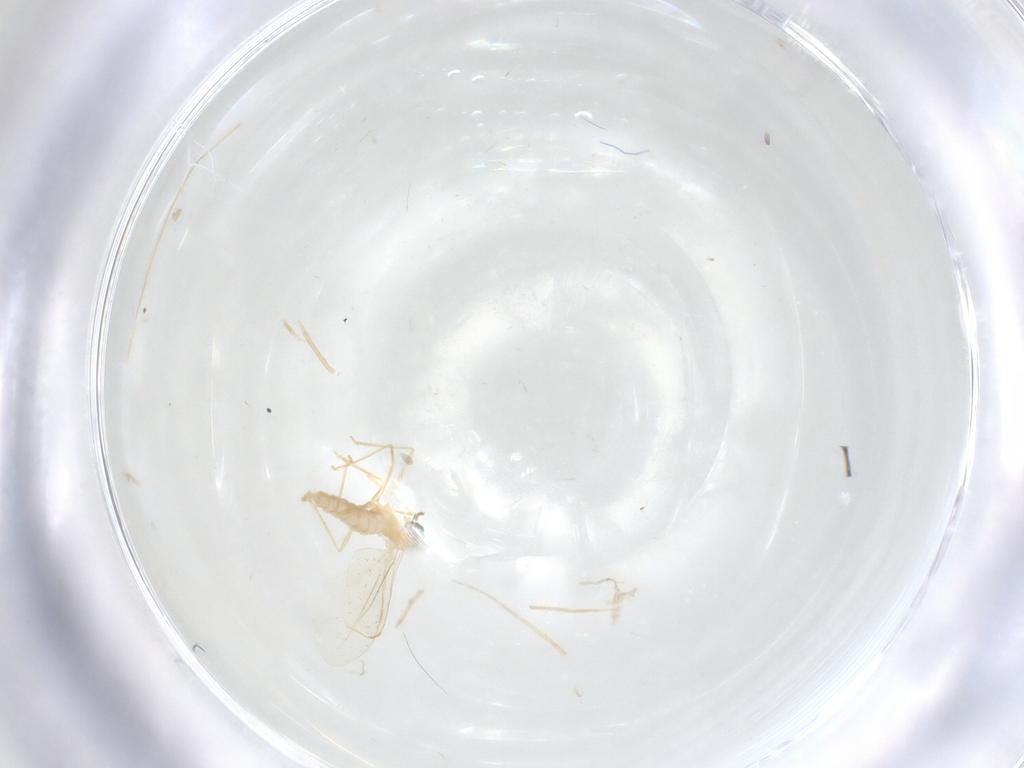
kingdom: Animalia
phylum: Arthropoda
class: Insecta
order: Diptera
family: Cecidomyiidae
